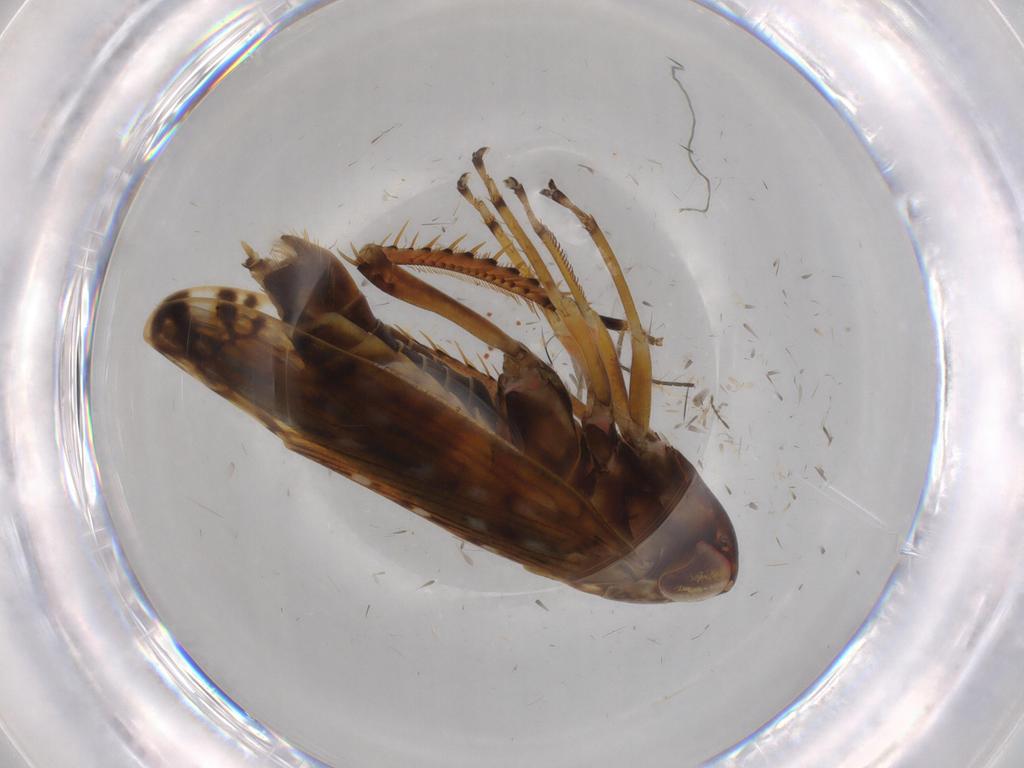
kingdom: Animalia
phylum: Arthropoda
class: Insecta
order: Hemiptera
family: Cicadellidae
